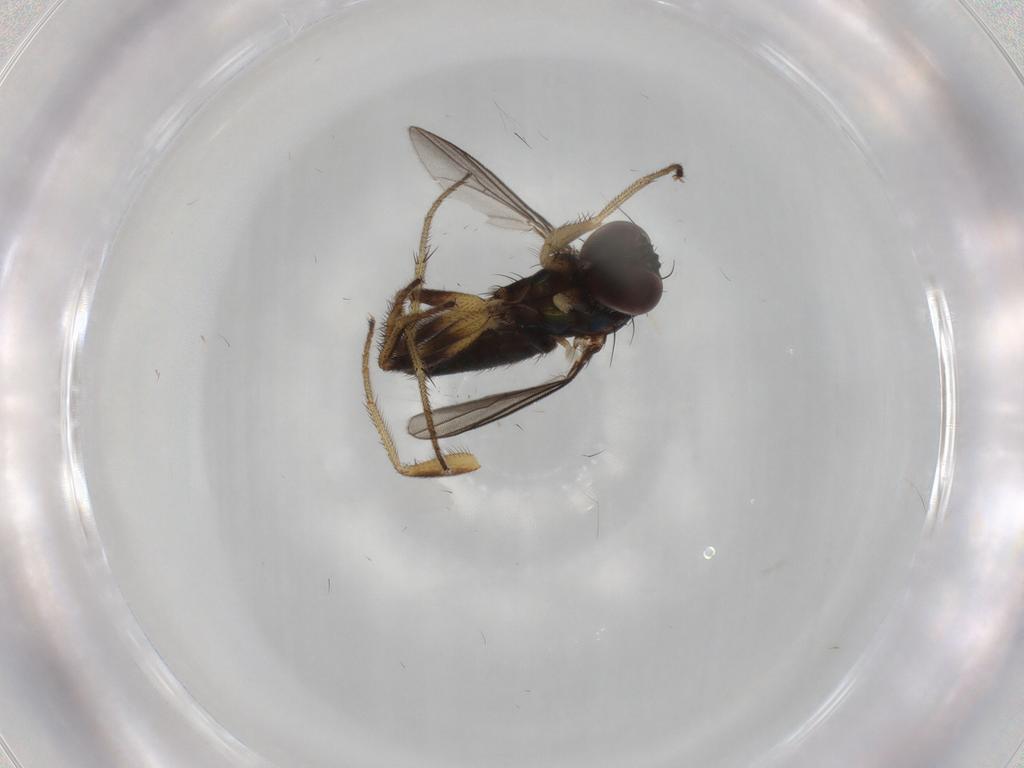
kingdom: Animalia
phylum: Arthropoda
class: Insecta
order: Diptera
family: Dolichopodidae
